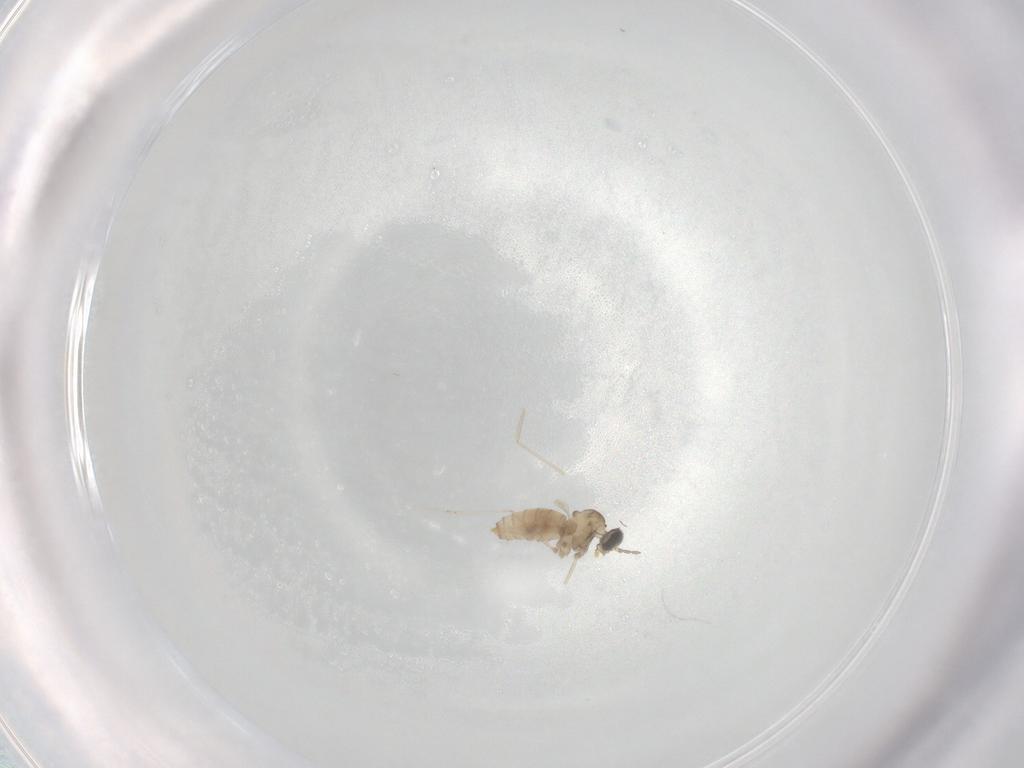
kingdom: Animalia
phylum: Arthropoda
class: Insecta
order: Diptera
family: Cecidomyiidae
